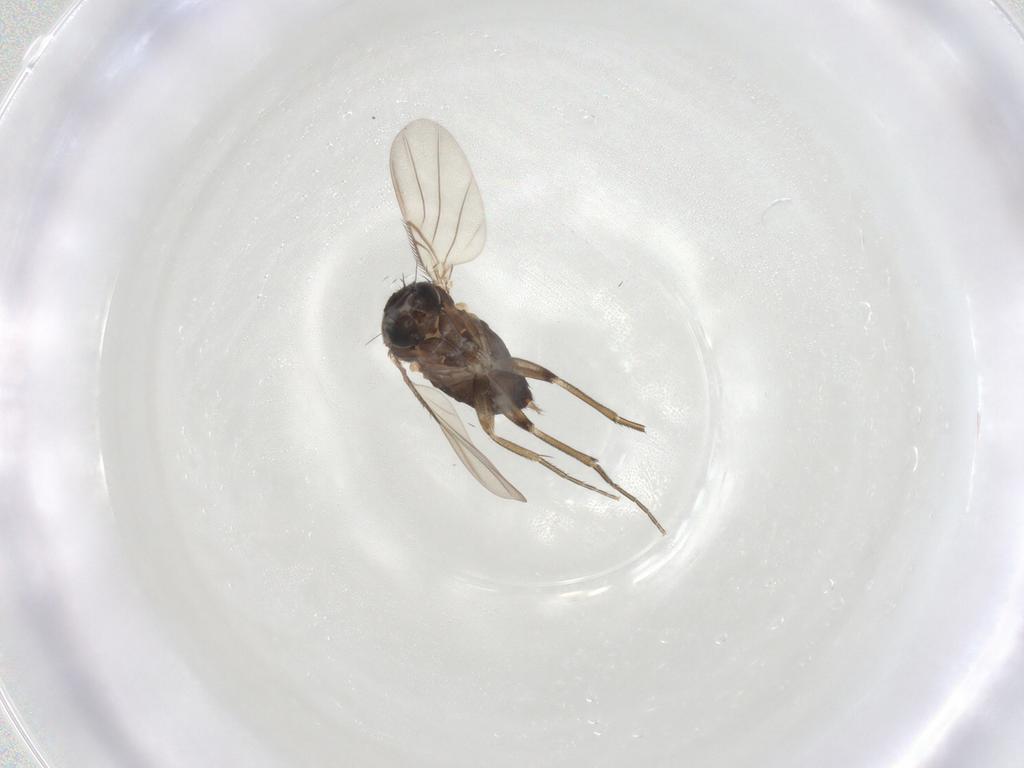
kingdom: Animalia
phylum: Arthropoda
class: Insecta
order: Diptera
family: Phoridae
